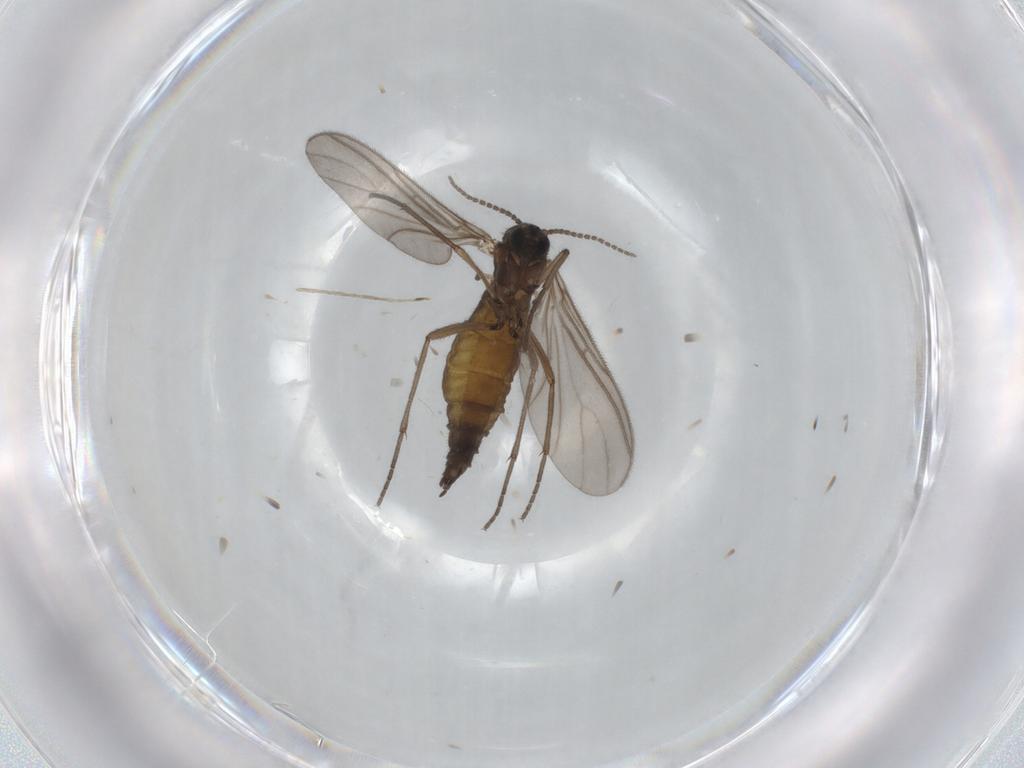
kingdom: Animalia
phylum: Arthropoda
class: Insecta
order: Diptera
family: Sciaridae
